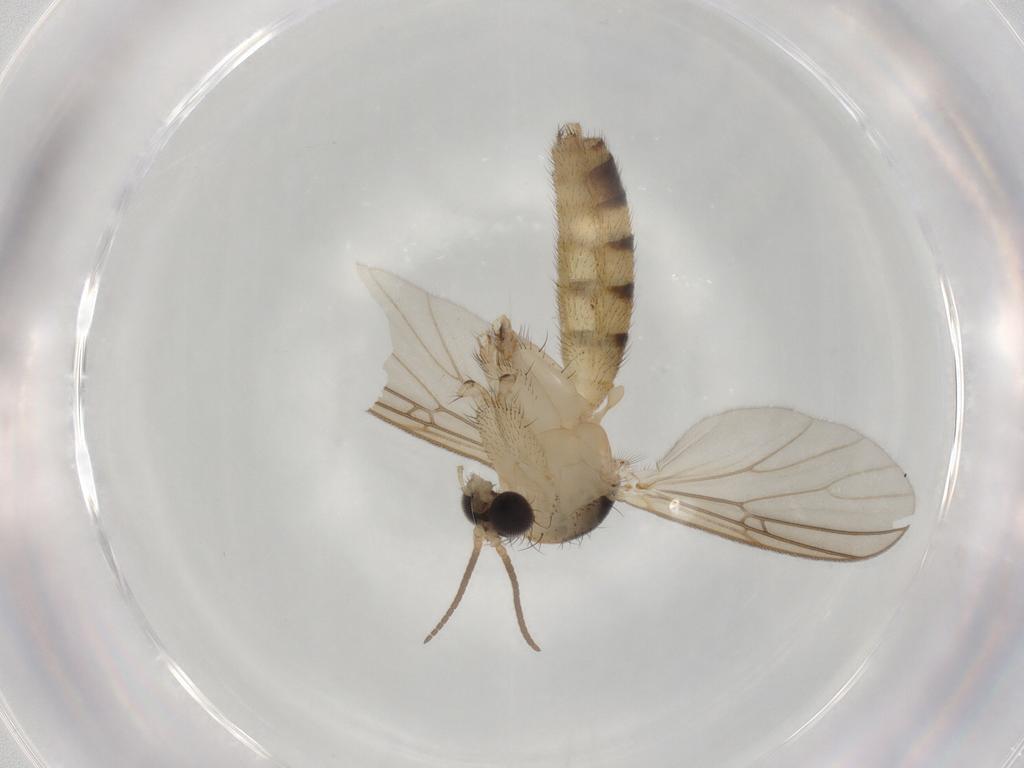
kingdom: Animalia
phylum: Arthropoda
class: Insecta
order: Diptera
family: Mycetophilidae
